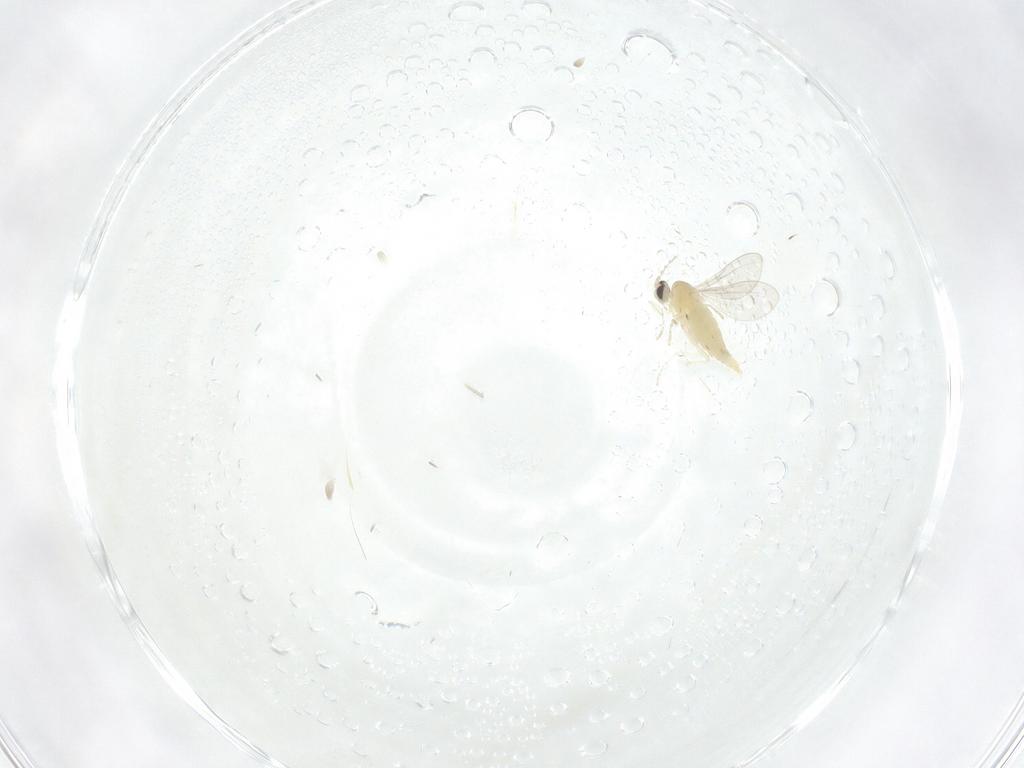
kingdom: Animalia
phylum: Arthropoda
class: Insecta
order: Diptera
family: Cecidomyiidae
